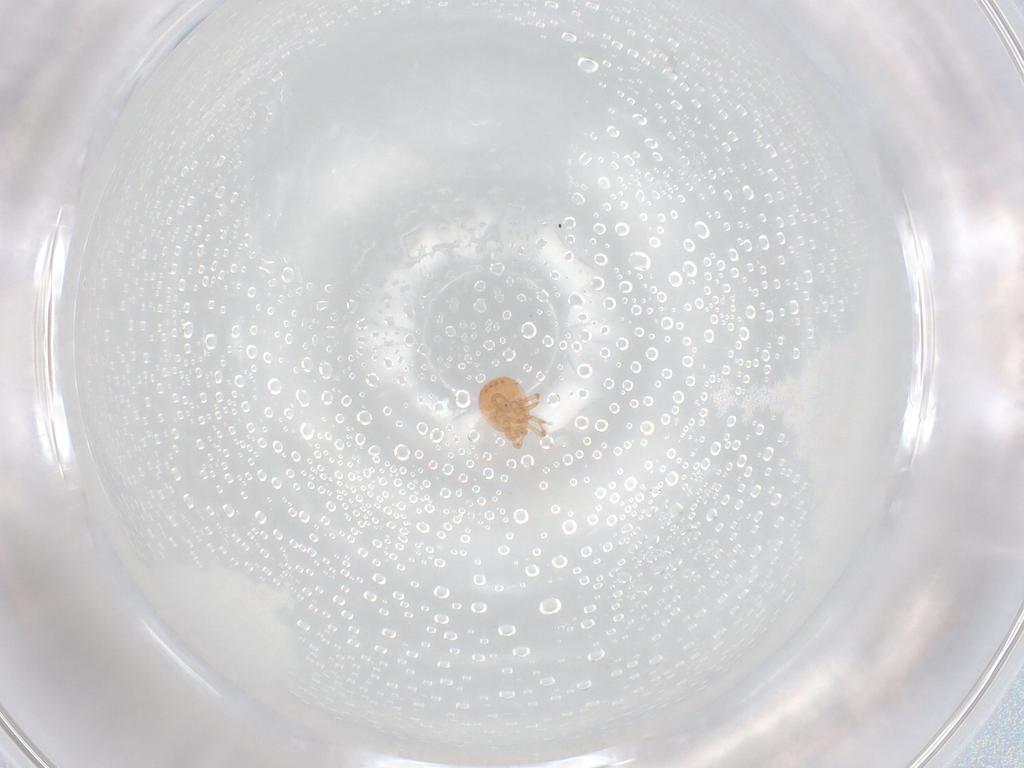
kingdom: Animalia
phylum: Arthropoda
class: Arachnida
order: Mesostigmata
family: Zerconidae
